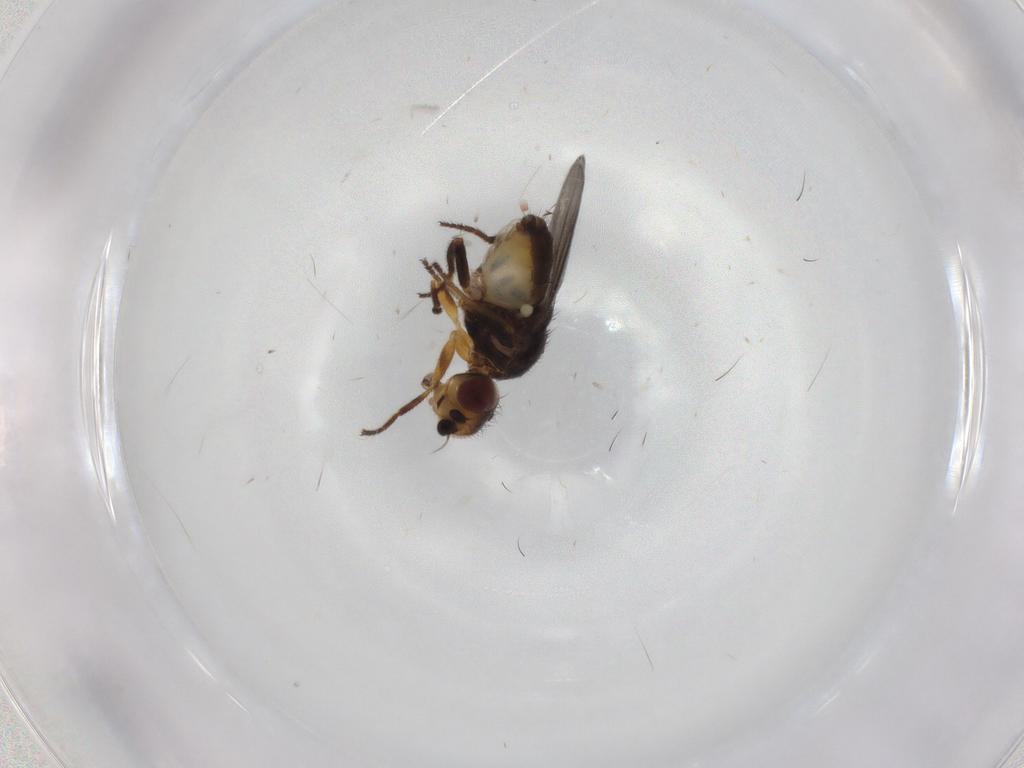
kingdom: Animalia
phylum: Arthropoda
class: Insecta
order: Diptera
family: Chloropidae
